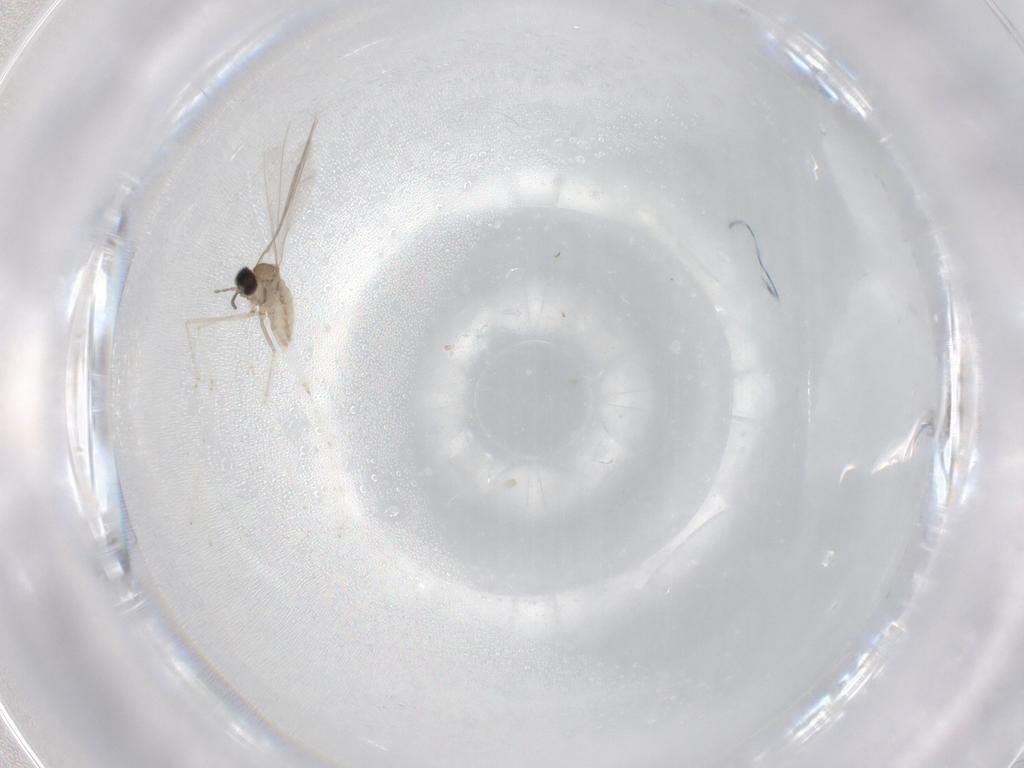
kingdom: Animalia
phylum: Arthropoda
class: Insecta
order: Diptera
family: Cecidomyiidae
